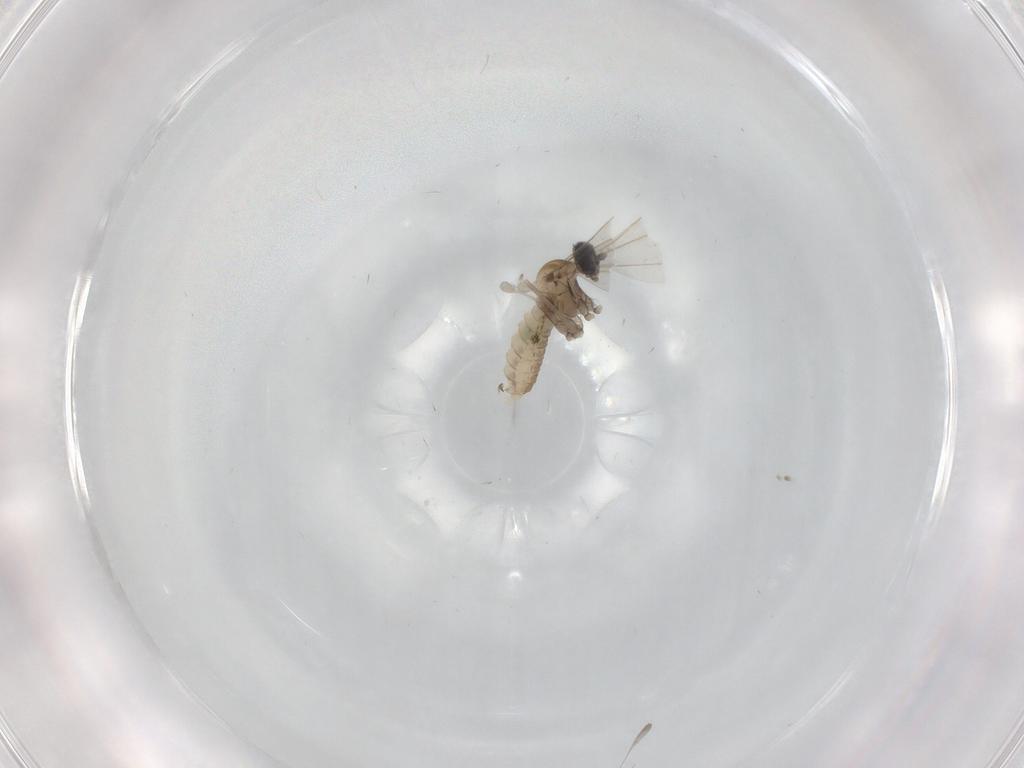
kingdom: Animalia
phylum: Arthropoda
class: Insecta
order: Diptera
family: Cecidomyiidae
